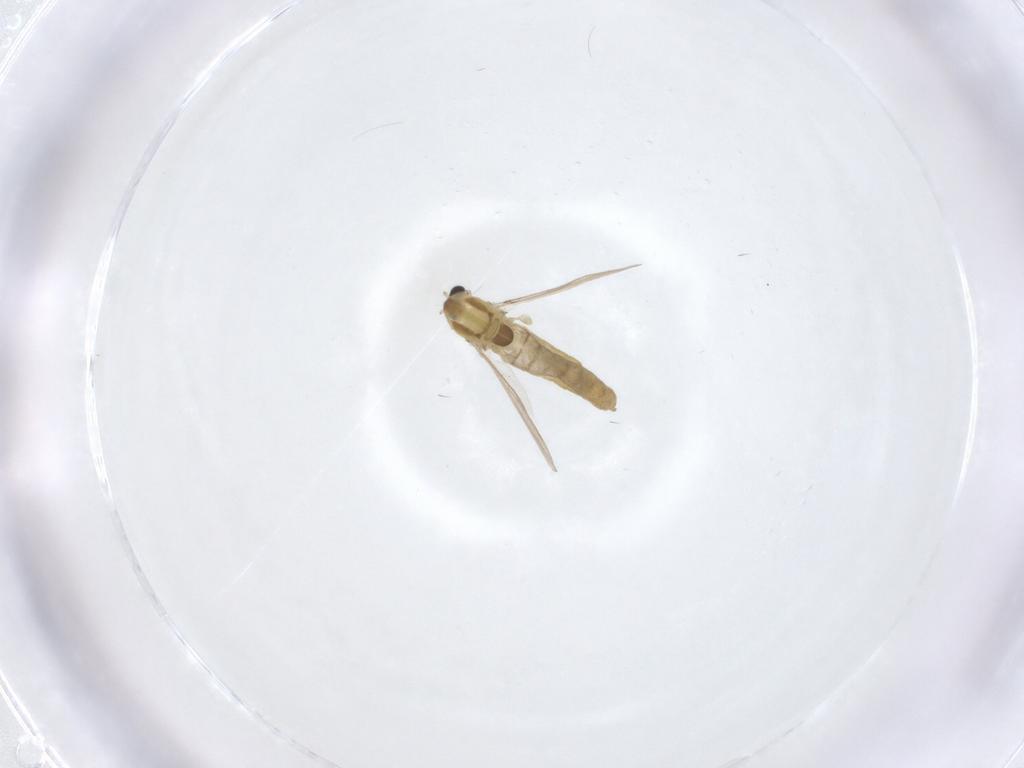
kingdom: Animalia
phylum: Arthropoda
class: Insecta
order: Diptera
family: Chironomidae
